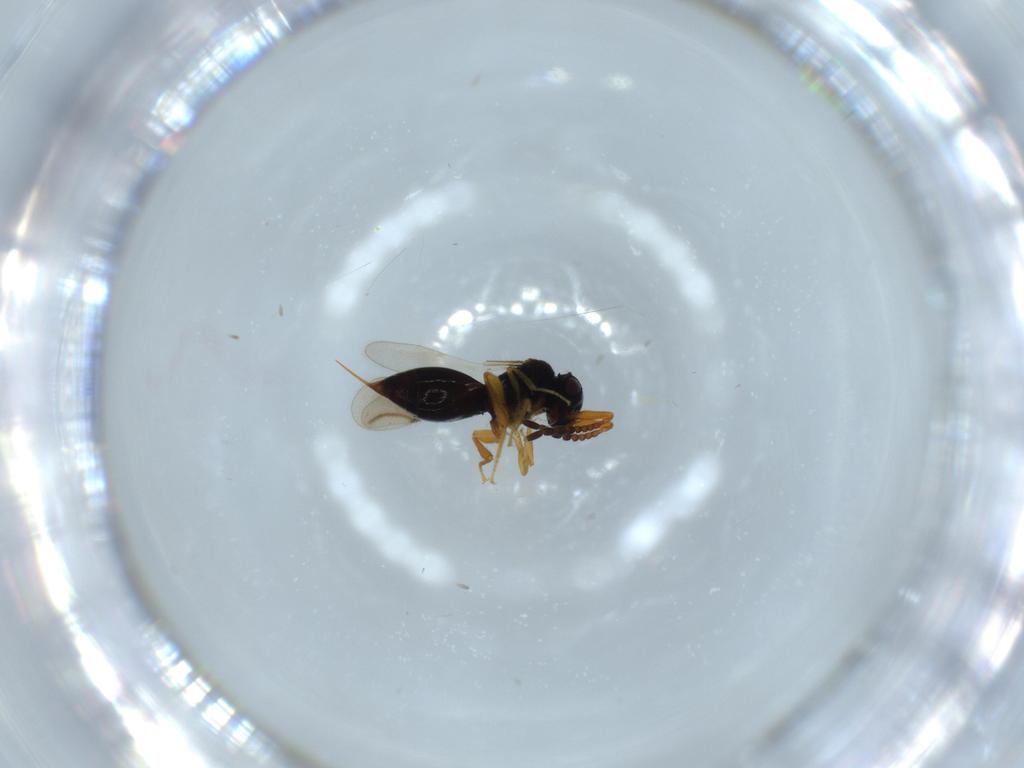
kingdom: Animalia
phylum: Arthropoda
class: Insecta
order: Hymenoptera
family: Platygastridae
